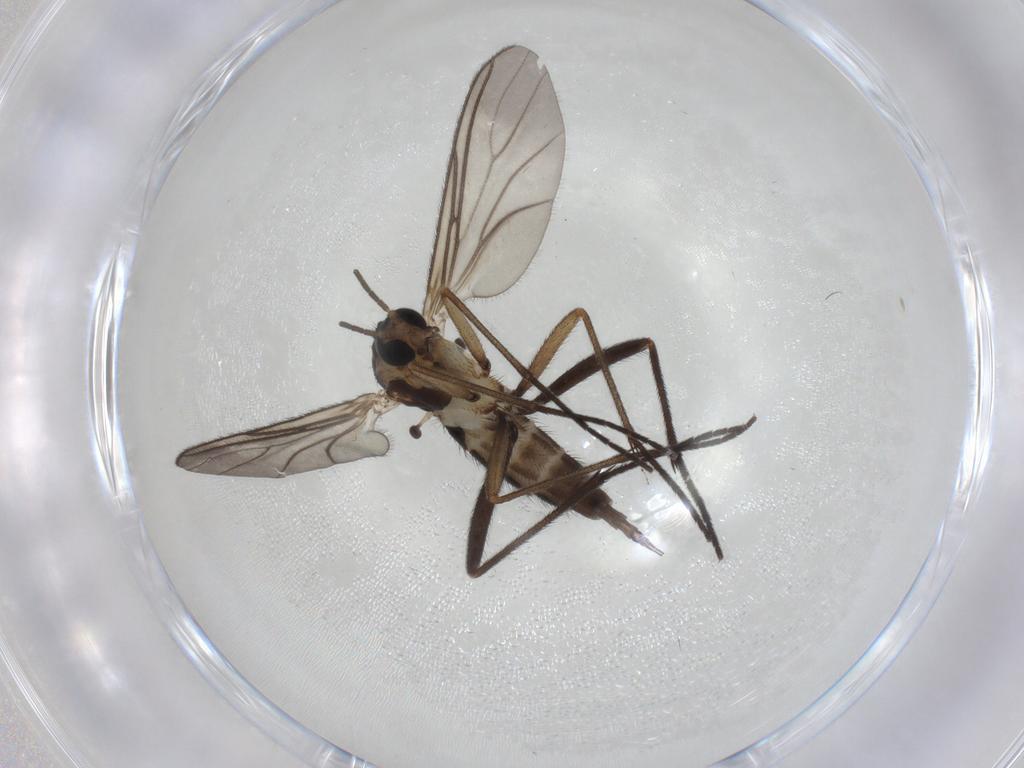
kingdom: Animalia
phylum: Arthropoda
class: Insecta
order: Diptera
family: Sciaridae
